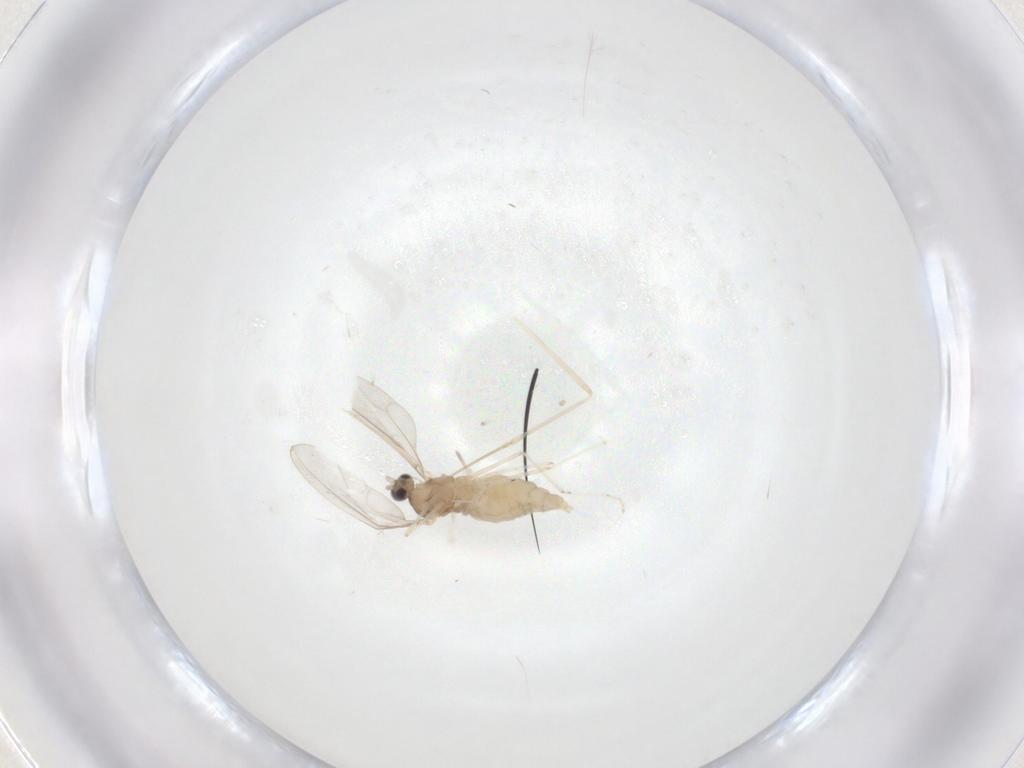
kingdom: Animalia
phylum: Arthropoda
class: Insecta
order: Diptera
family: Cecidomyiidae
